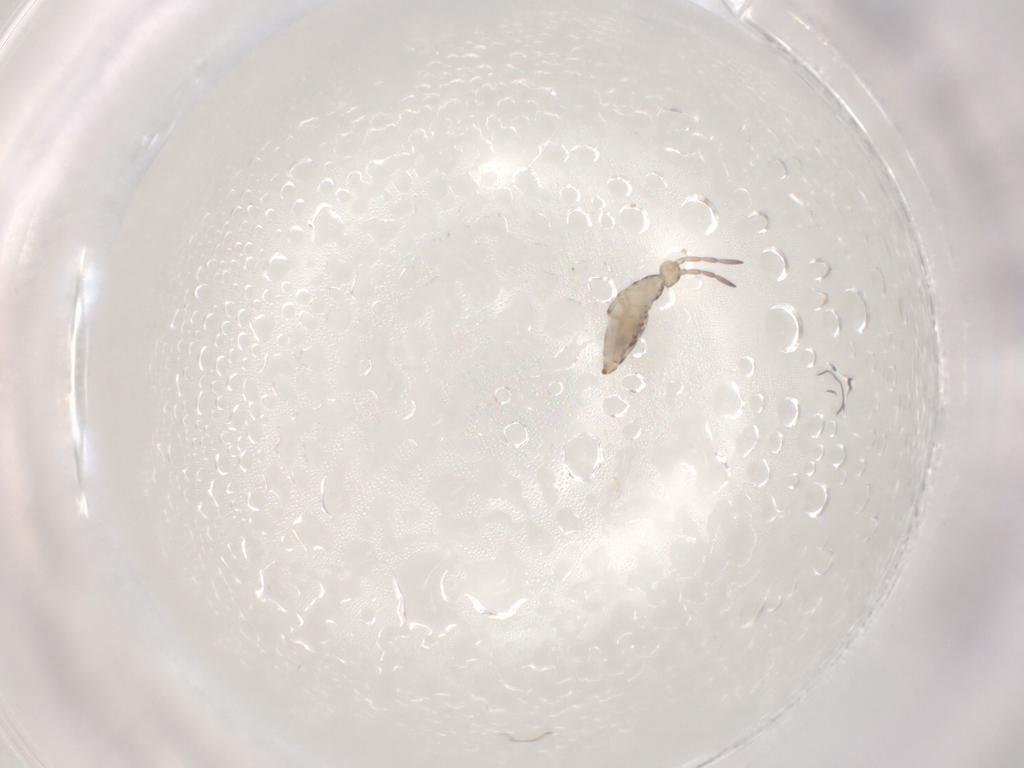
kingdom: Animalia
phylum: Arthropoda
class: Collembola
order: Entomobryomorpha
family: Entomobryidae
